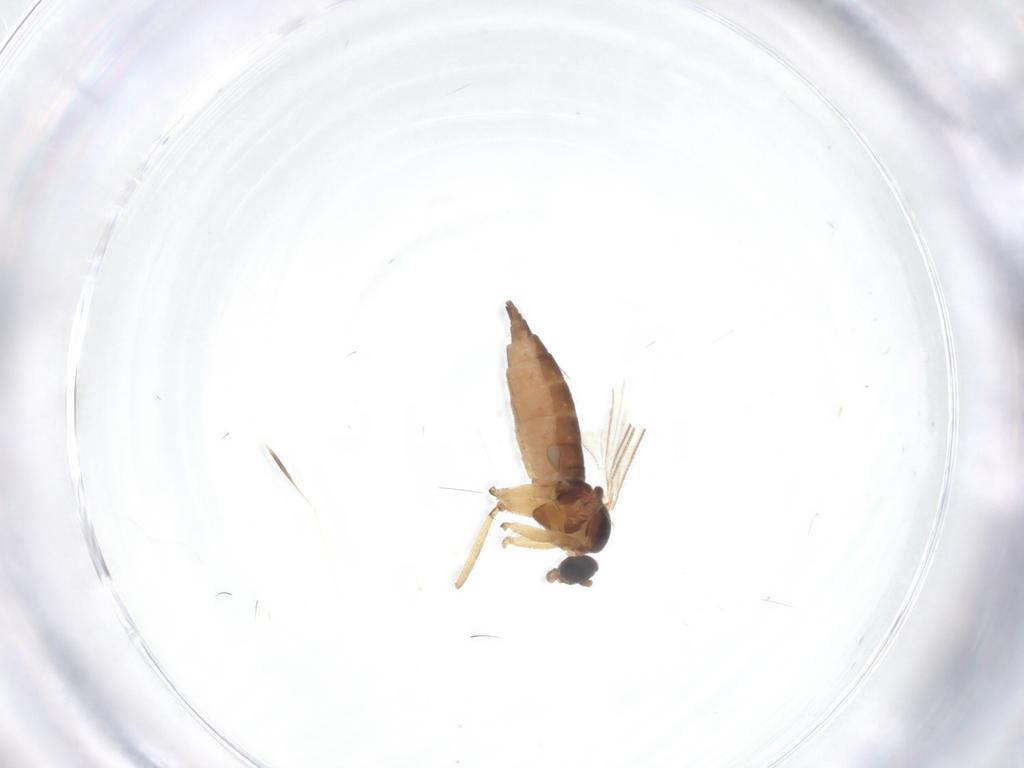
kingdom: Animalia
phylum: Arthropoda
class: Insecta
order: Diptera
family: Sciaridae
